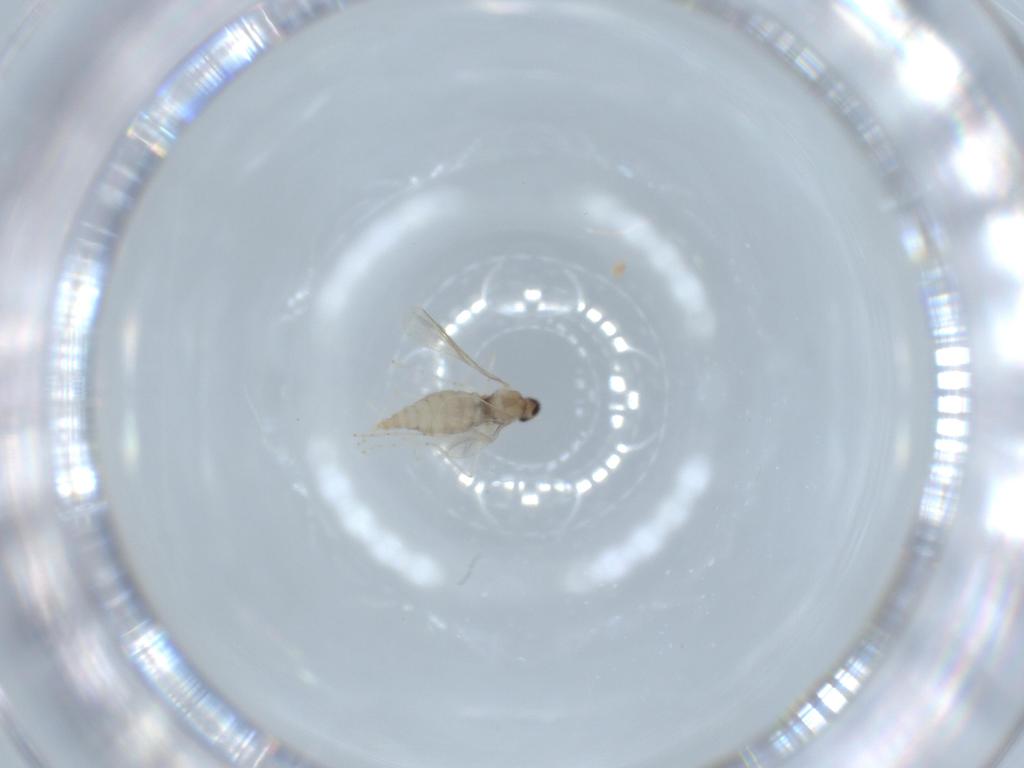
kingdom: Animalia
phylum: Arthropoda
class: Insecta
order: Diptera
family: Cecidomyiidae
